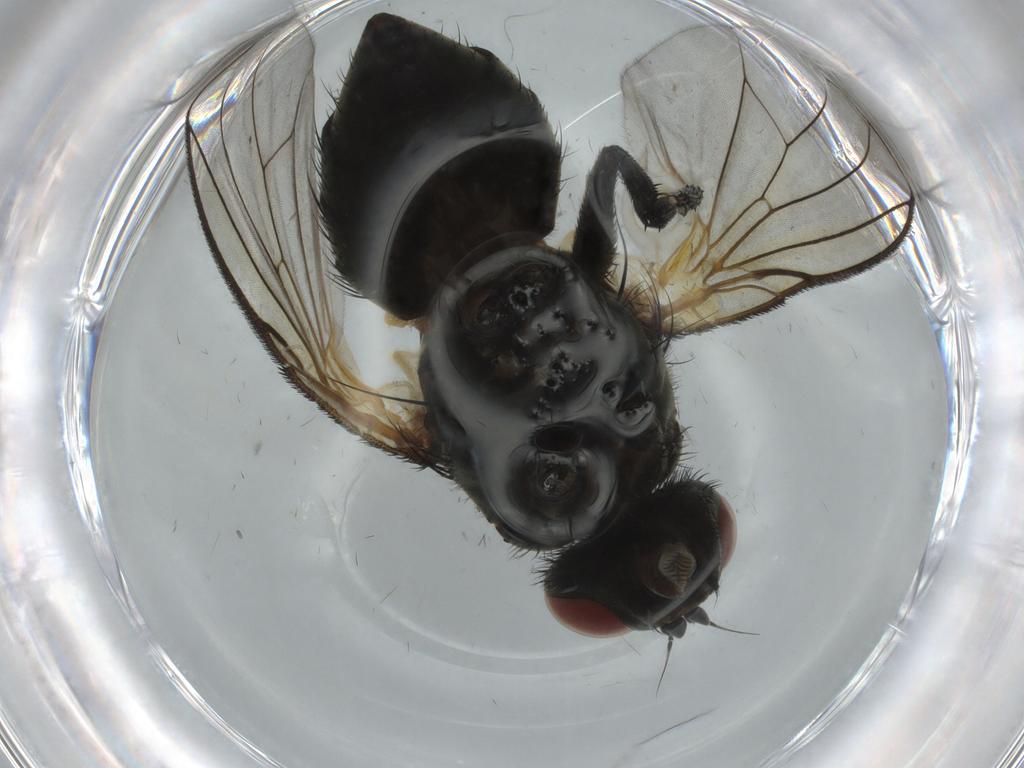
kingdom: Animalia
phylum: Arthropoda
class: Insecta
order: Diptera
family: Muscidae
